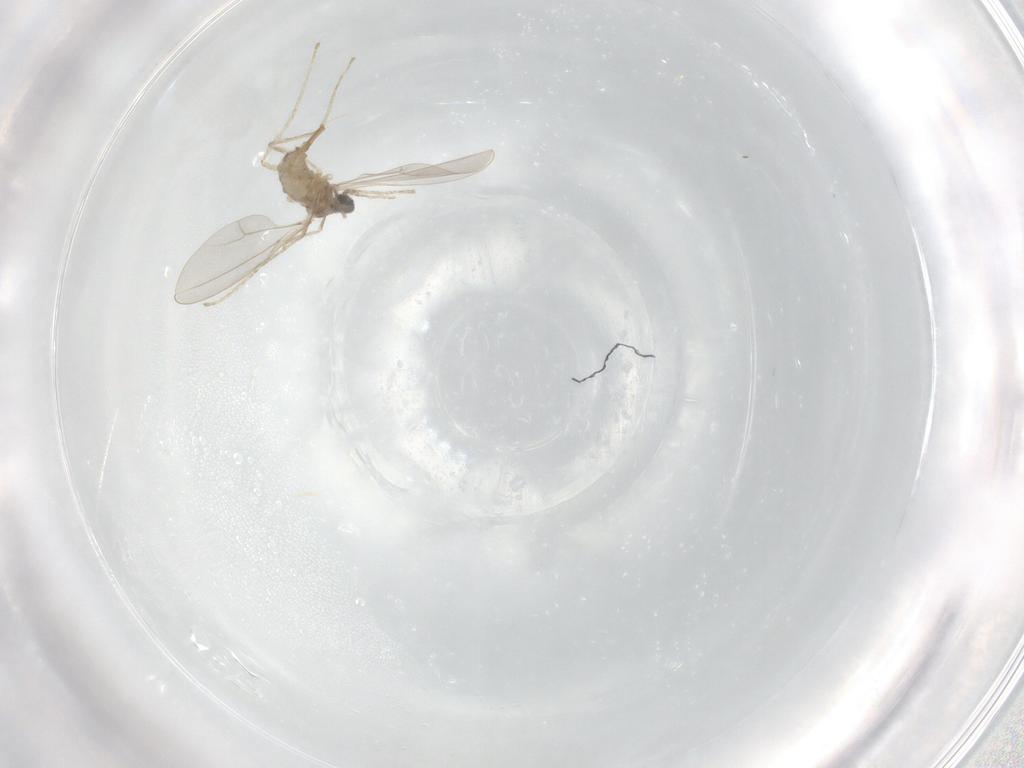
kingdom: Animalia
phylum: Arthropoda
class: Insecta
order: Diptera
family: Cecidomyiidae
